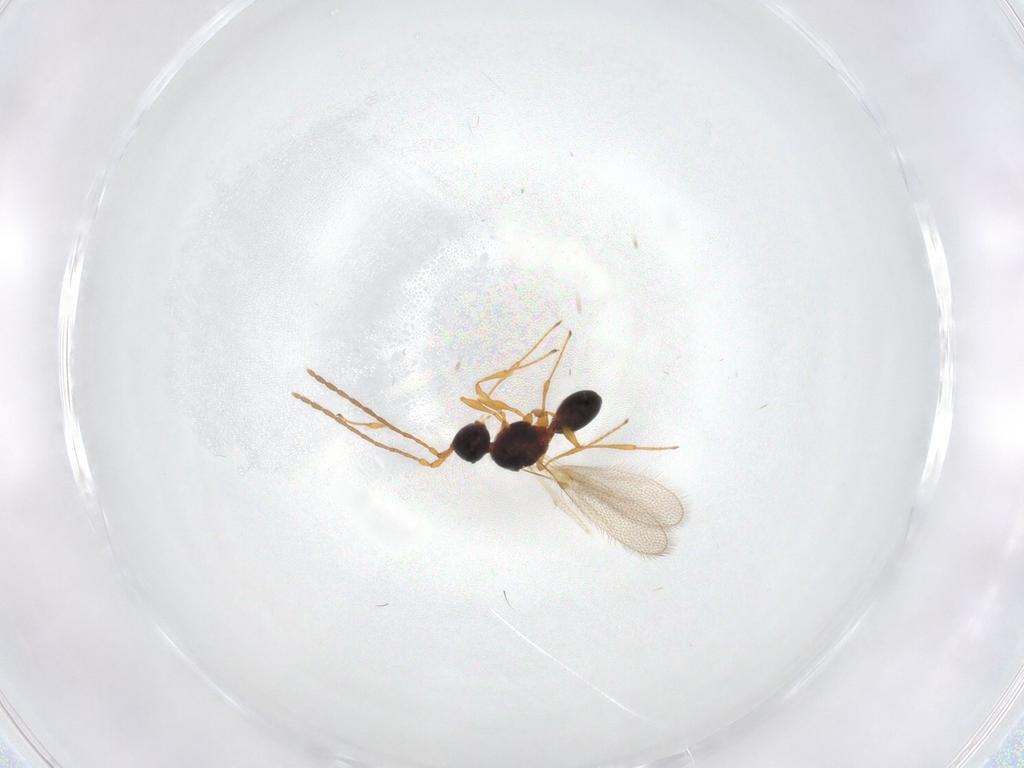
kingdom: Animalia
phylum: Arthropoda
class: Insecta
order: Hymenoptera
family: Diapriidae
